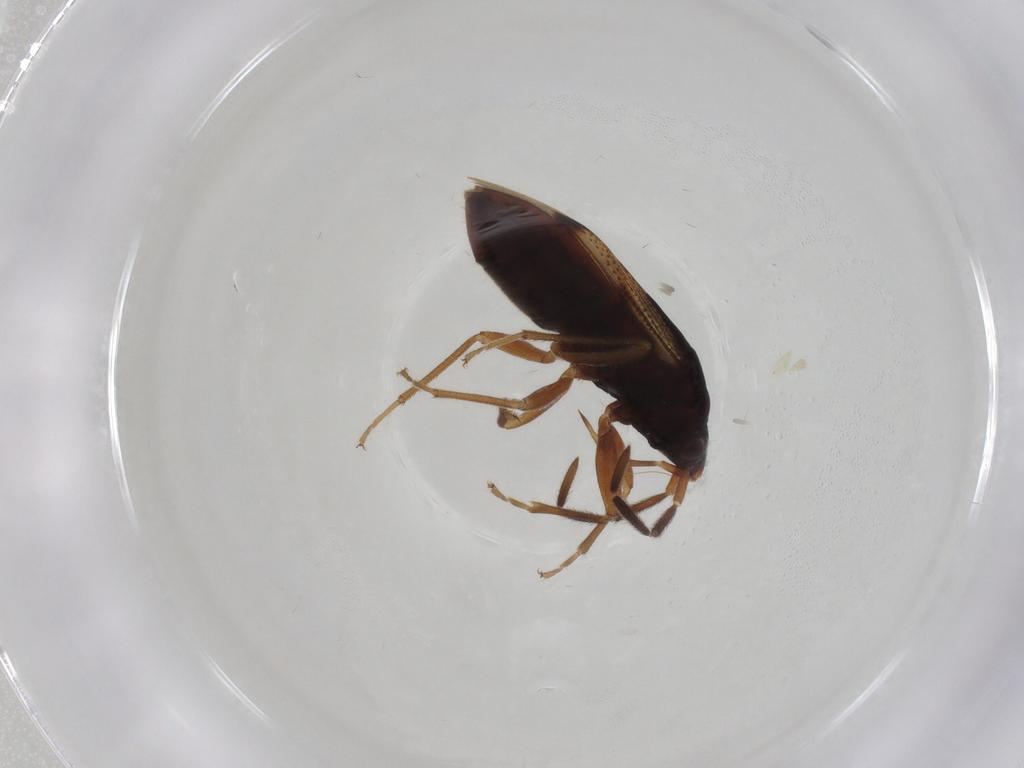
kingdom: Animalia
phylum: Arthropoda
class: Insecta
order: Hemiptera
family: Rhyparochromidae
